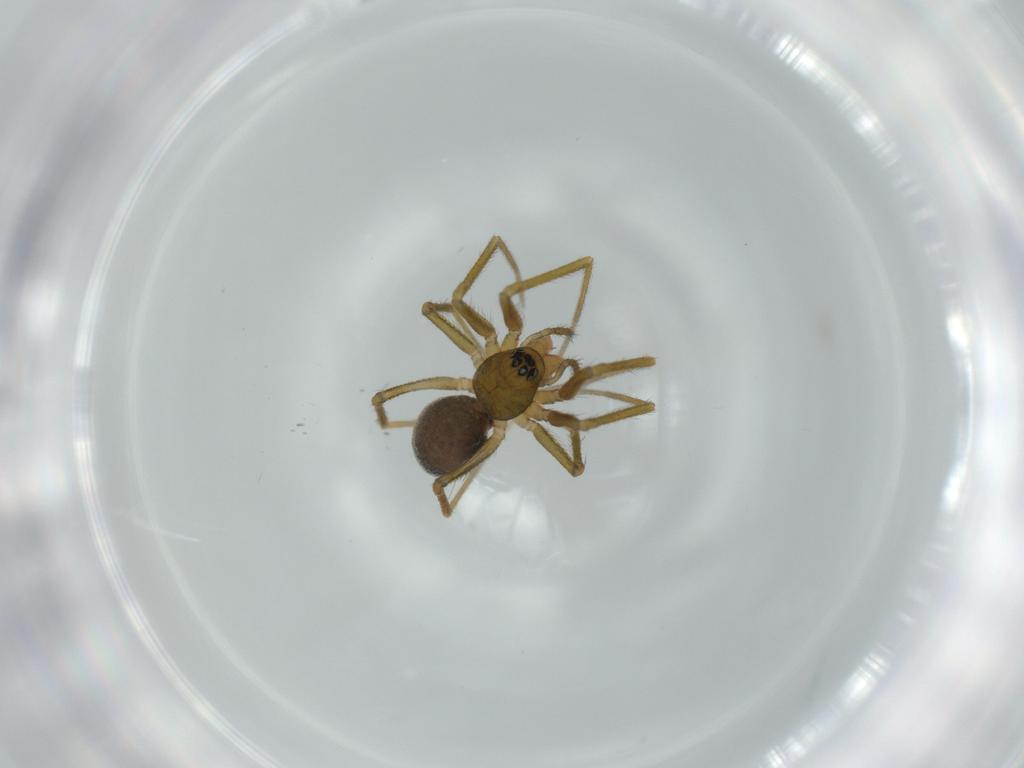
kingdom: Animalia
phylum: Arthropoda
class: Arachnida
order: Araneae
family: Linyphiidae
